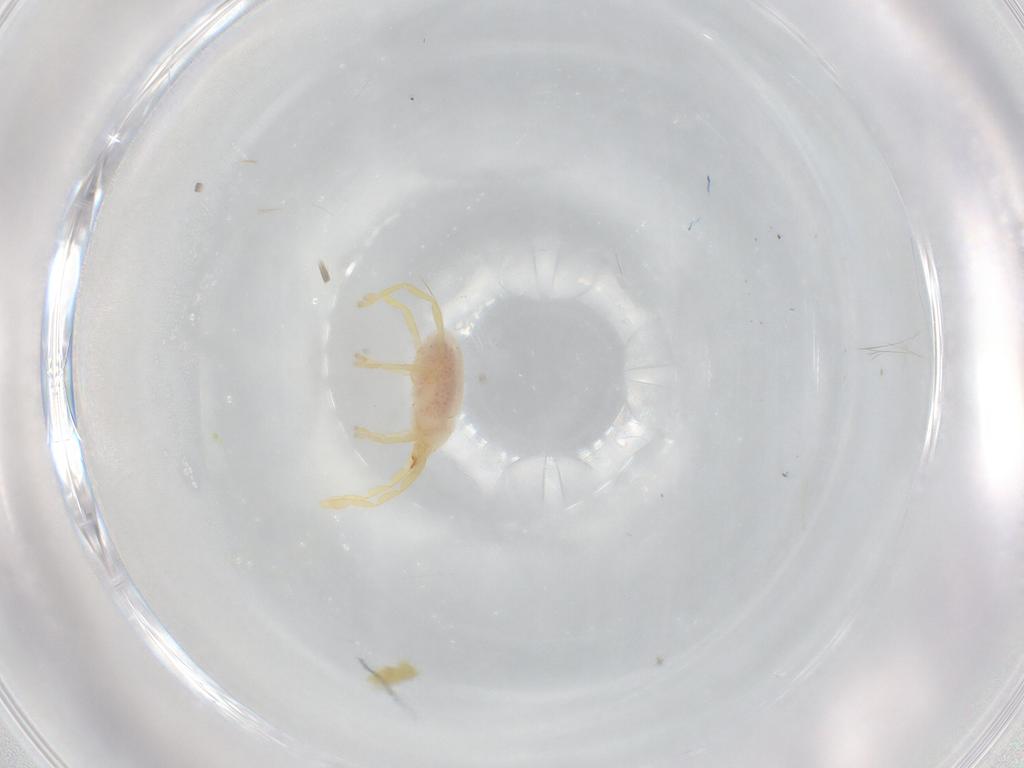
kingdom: Animalia
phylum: Arthropoda
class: Arachnida
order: Trombidiformes
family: Erythraeidae
